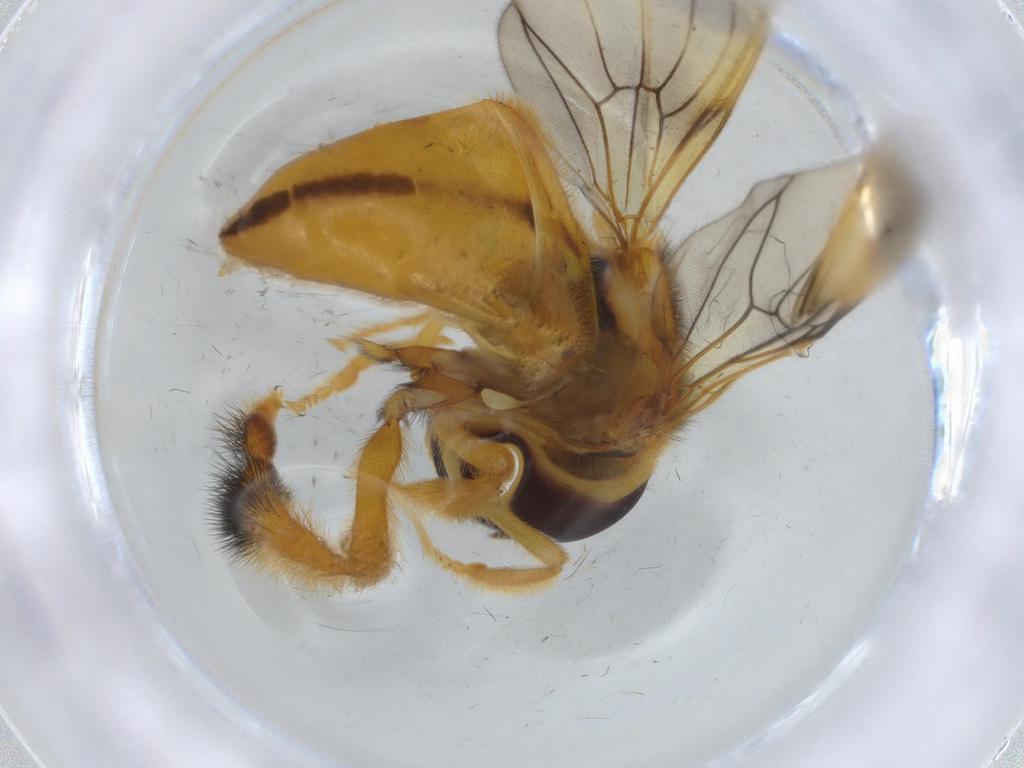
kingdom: Animalia
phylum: Arthropoda
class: Insecta
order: Diptera
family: Syrphidae
